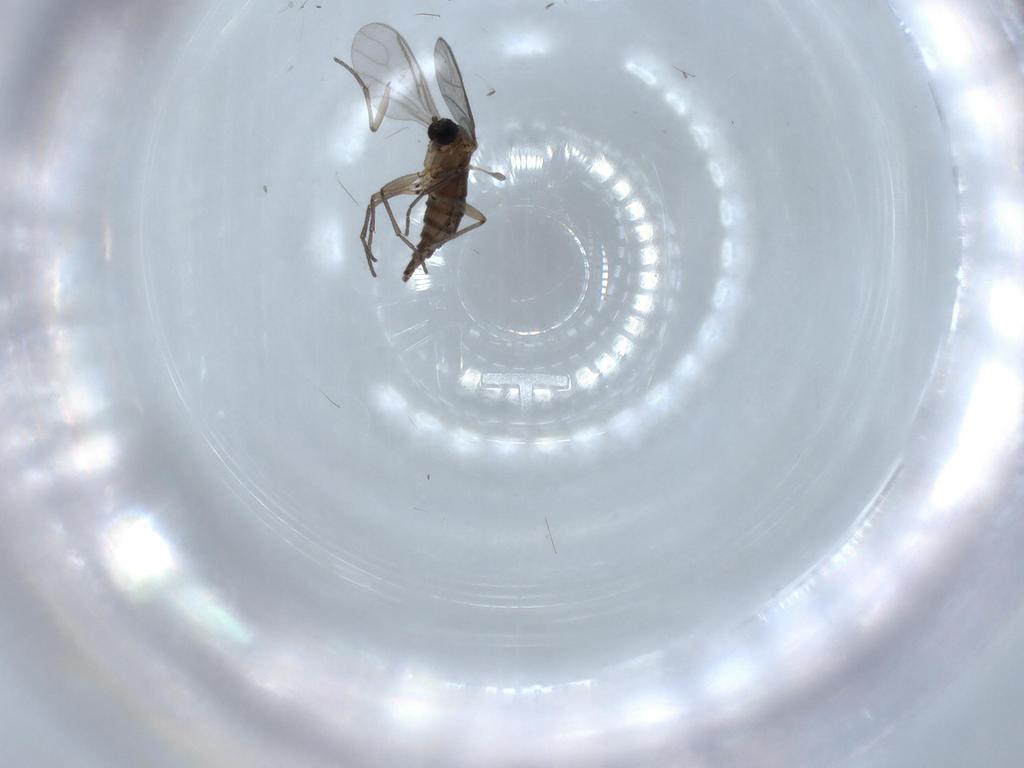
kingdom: Animalia
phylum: Arthropoda
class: Insecta
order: Diptera
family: Sciaridae
